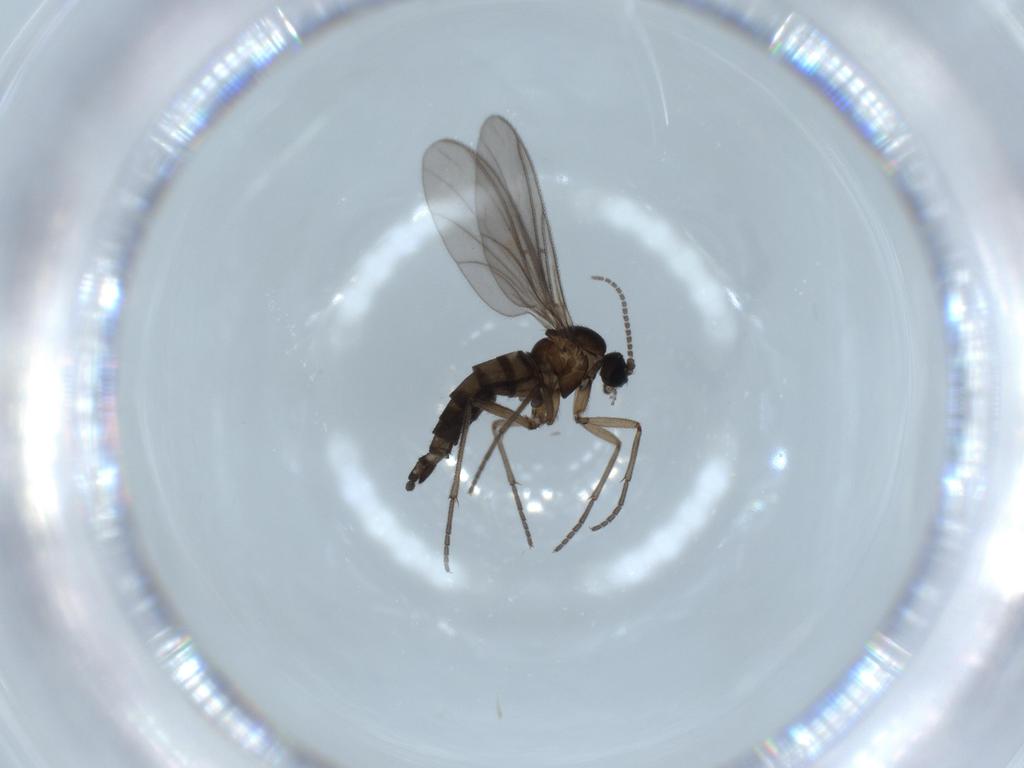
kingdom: Animalia
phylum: Arthropoda
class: Insecta
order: Diptera
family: Sciaridae
